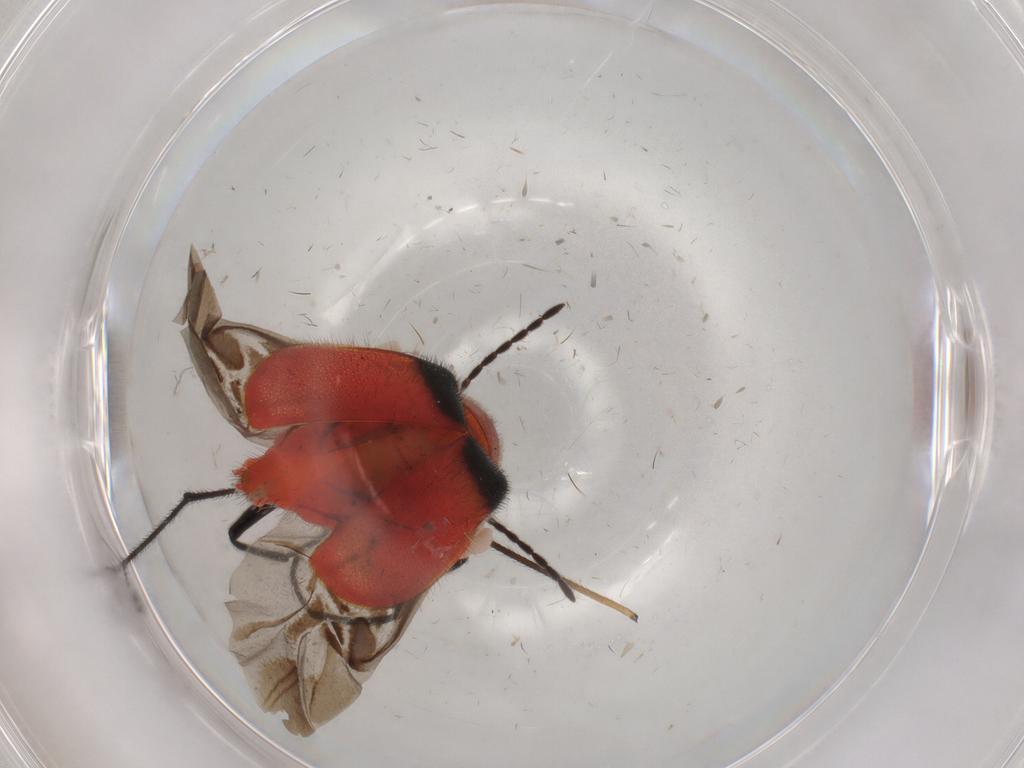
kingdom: Animalia
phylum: Arthropoda
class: Insecta
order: Coleoptera
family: Melyridae
